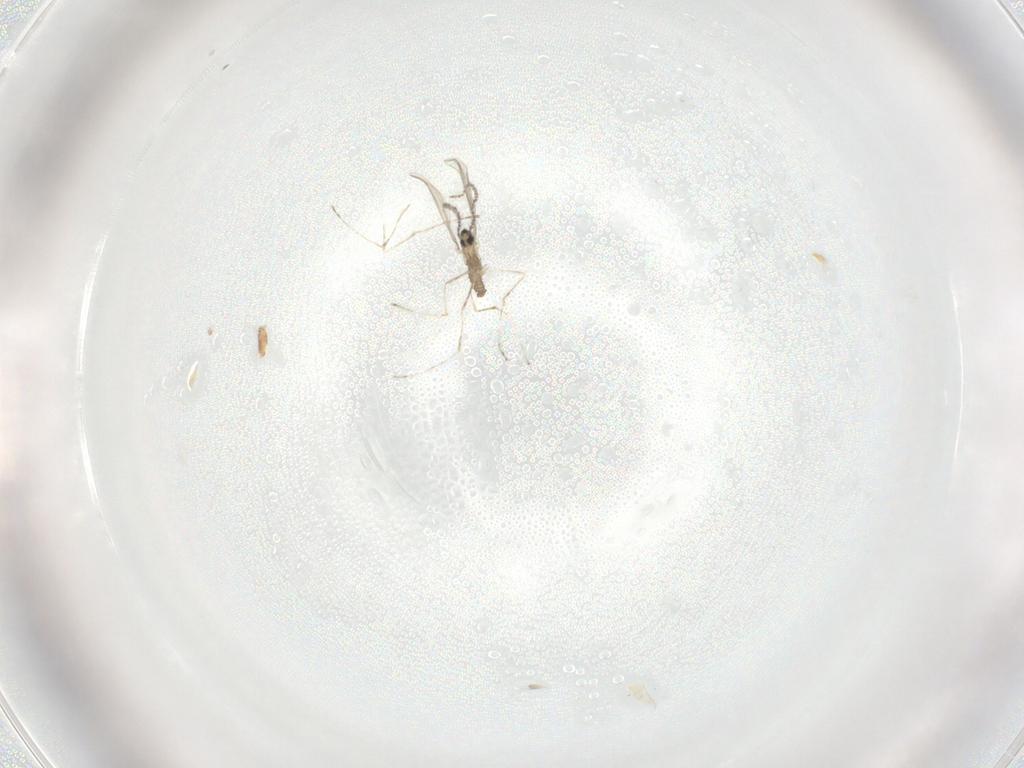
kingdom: Animalia
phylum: Arthropoda
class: Insecta
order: Diptera
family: Cecidomyiidae
